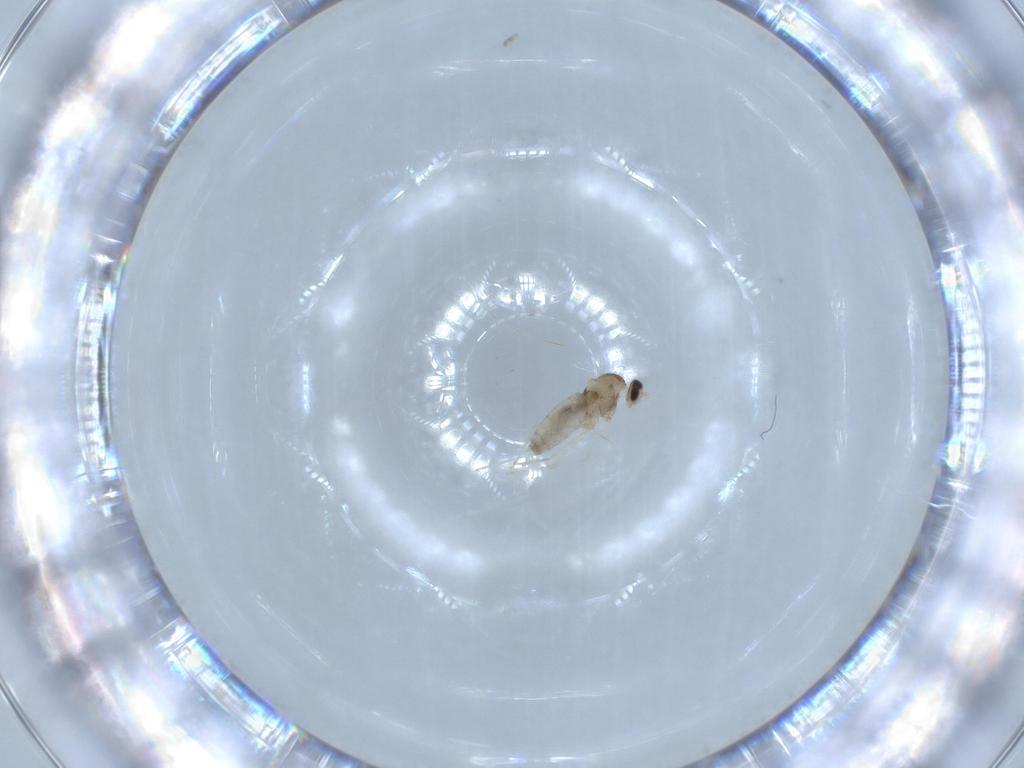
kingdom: Animalia
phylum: Arthropoda
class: Insecta
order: Diptera
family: Cecidomyiidae
